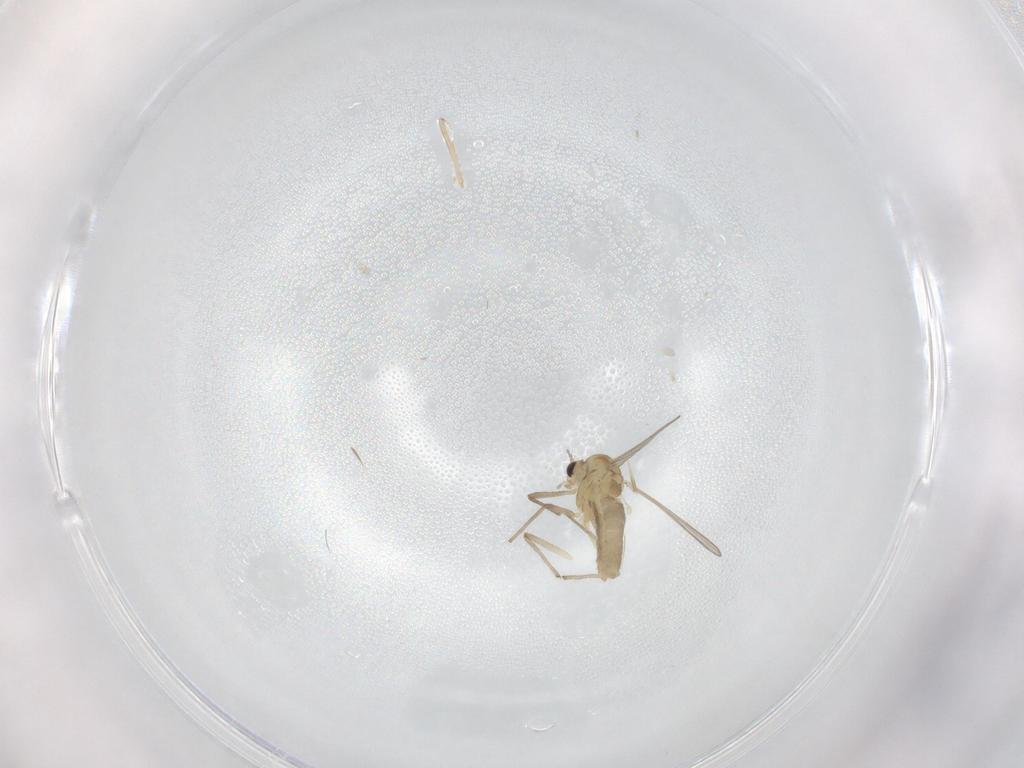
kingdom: Animalia
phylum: Arthropoda
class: Insecta
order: Diptera
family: Chironomidae
